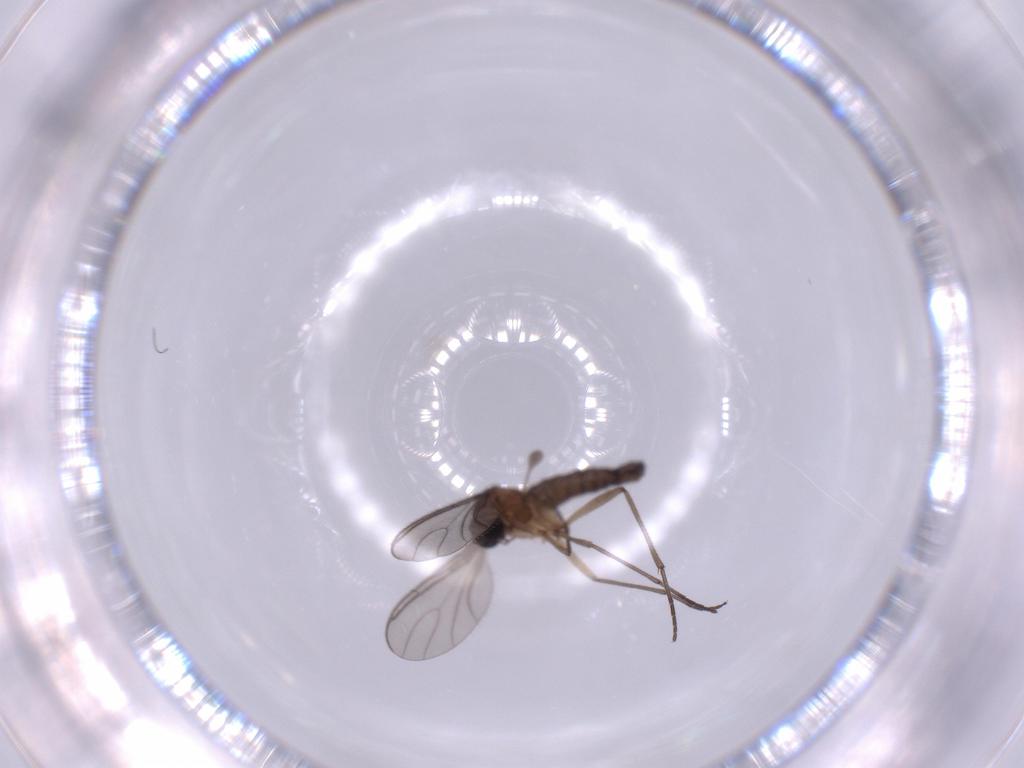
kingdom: Animalia
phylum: Arthropoda
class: Insecta
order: Diptera
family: Sciaridae
